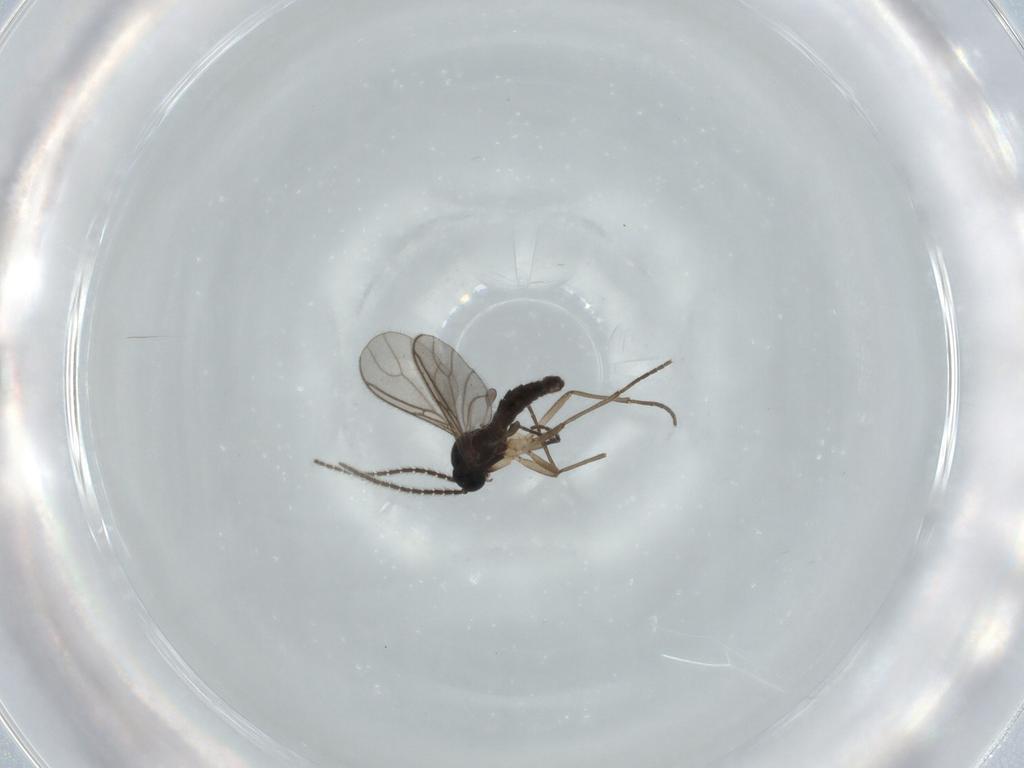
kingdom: Animalia
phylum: Arthropoda
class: Insecta
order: Diptera
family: Sciaridae
